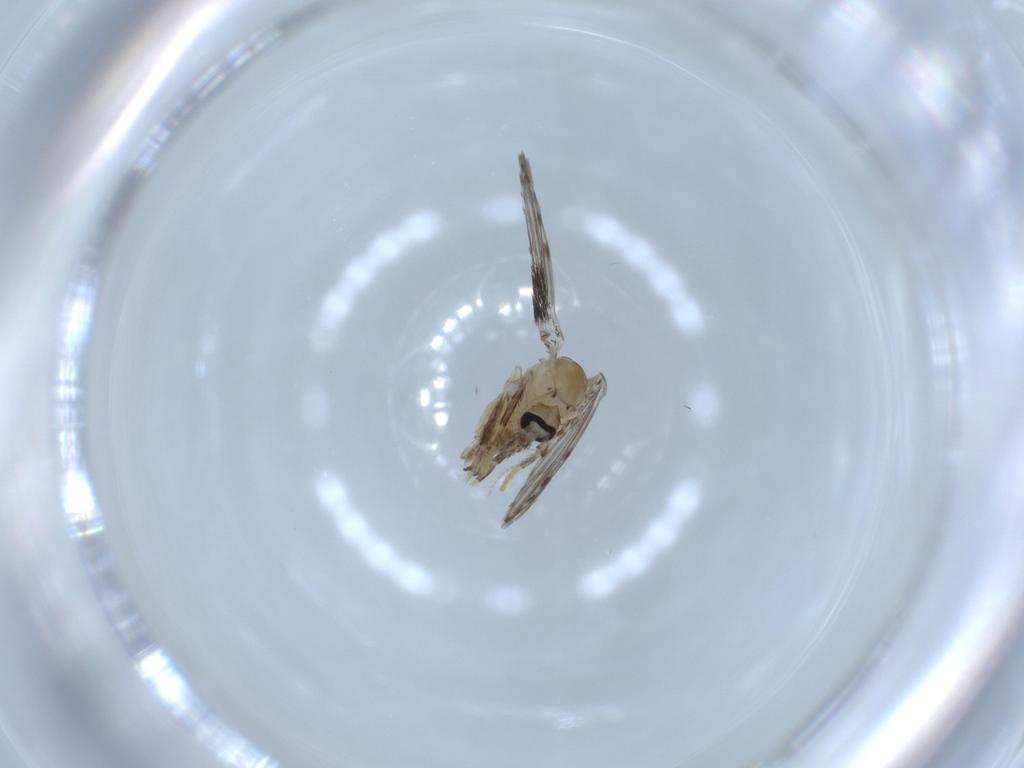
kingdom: Animalia
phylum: Arthropoda
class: Insecta
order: Diptera
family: Psychodidae
